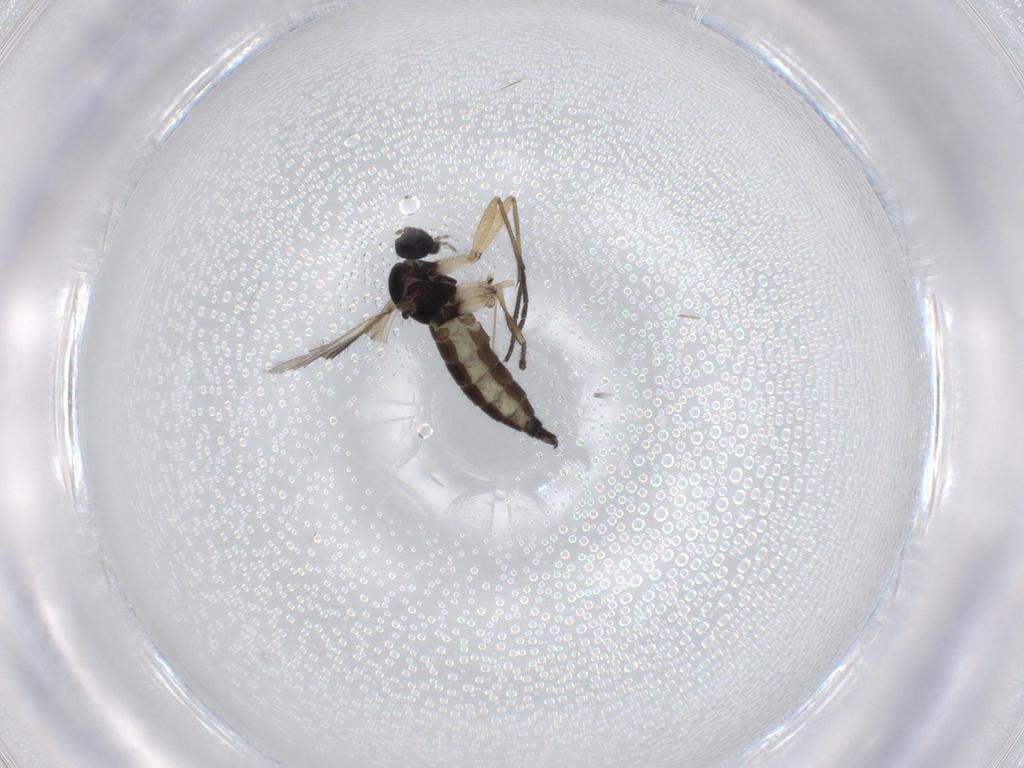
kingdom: Animalia
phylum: Arthropoda
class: Insecta
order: Diptera
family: Sciaridae
